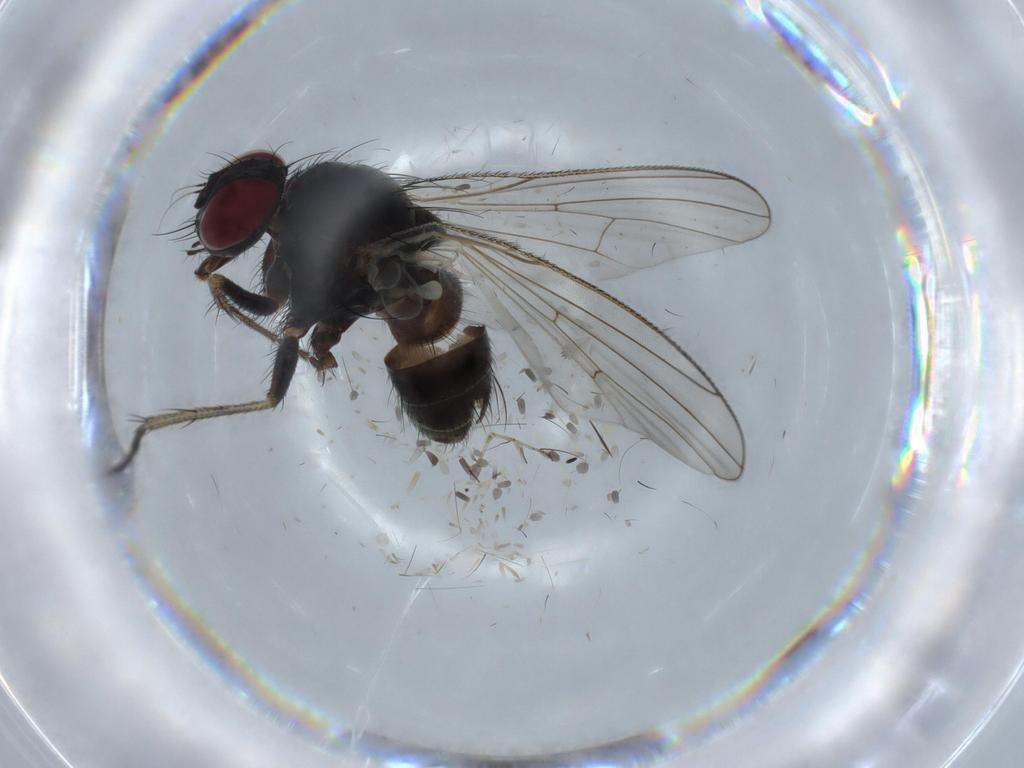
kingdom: Animalia
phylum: Arthropoda
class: Insecta
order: Diptera
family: Muscidae
